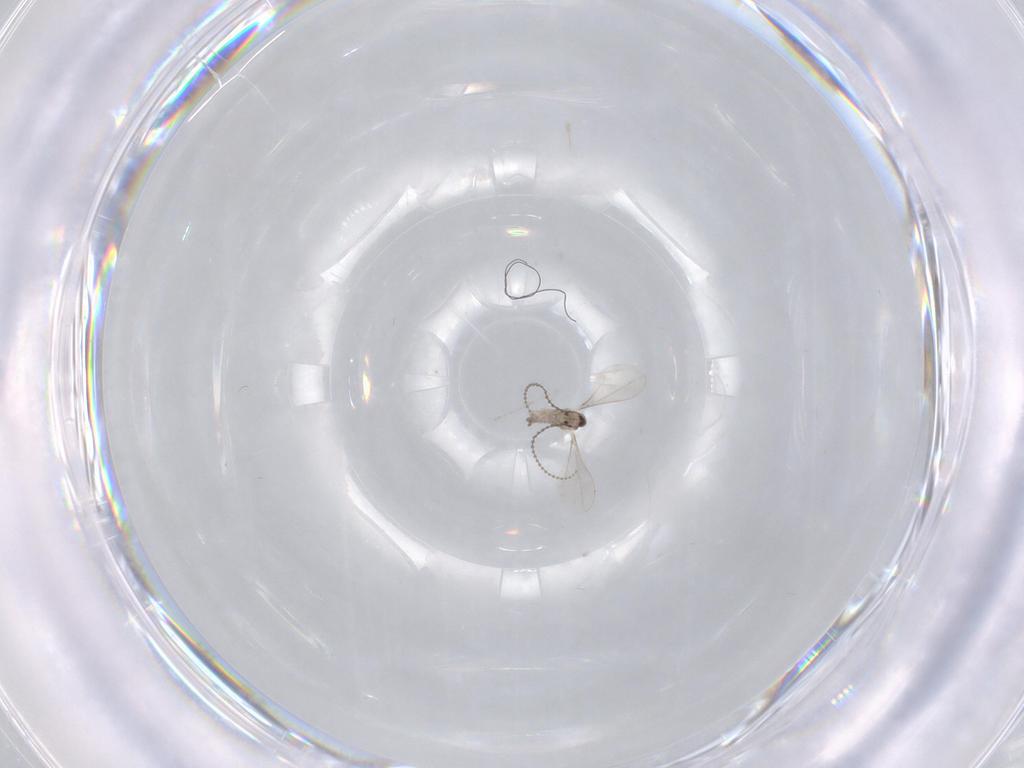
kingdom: Animalia
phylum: Arthropoda
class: Insecta
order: Diptera
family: Cecidomyiidae
